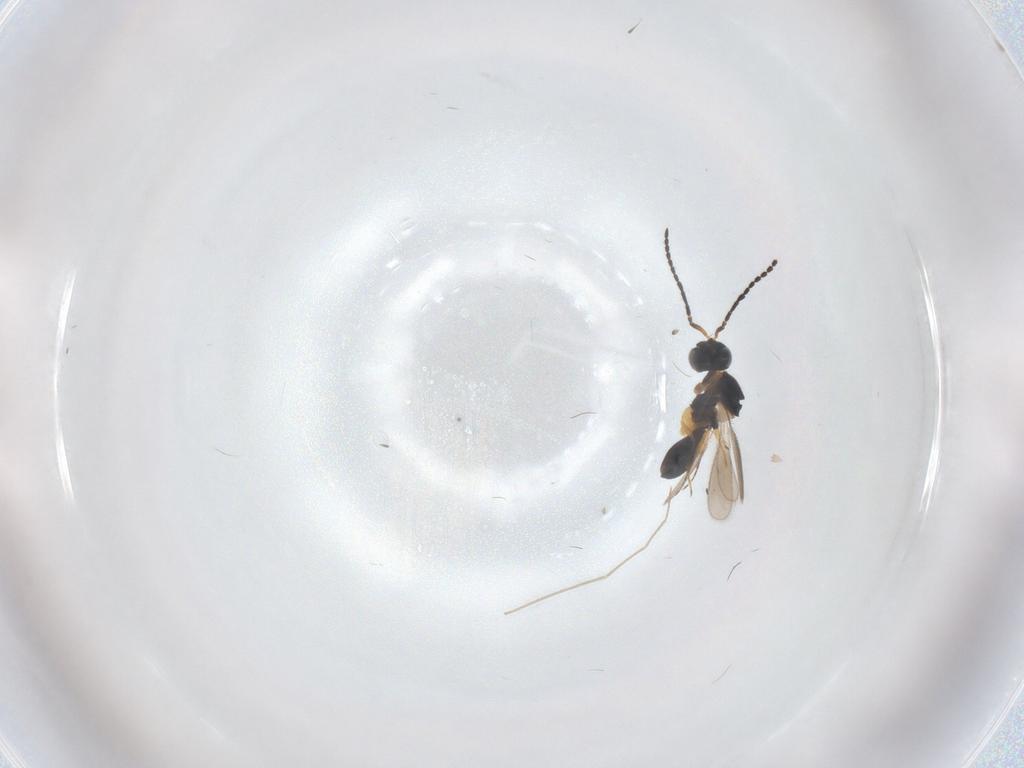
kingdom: Animalia
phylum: Arthropoda
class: Insecta
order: Hymenoptera
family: Scelionidae
